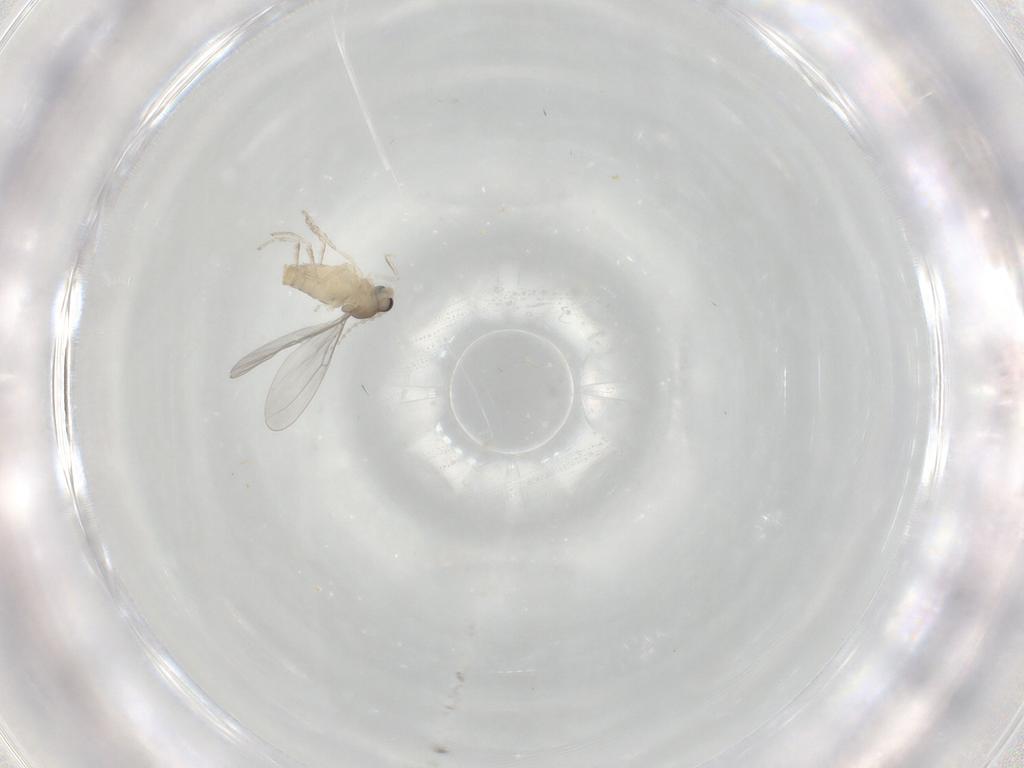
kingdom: Animalia
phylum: Arthropoda
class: Insecta
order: Diptera
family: Cecidomyiidae
